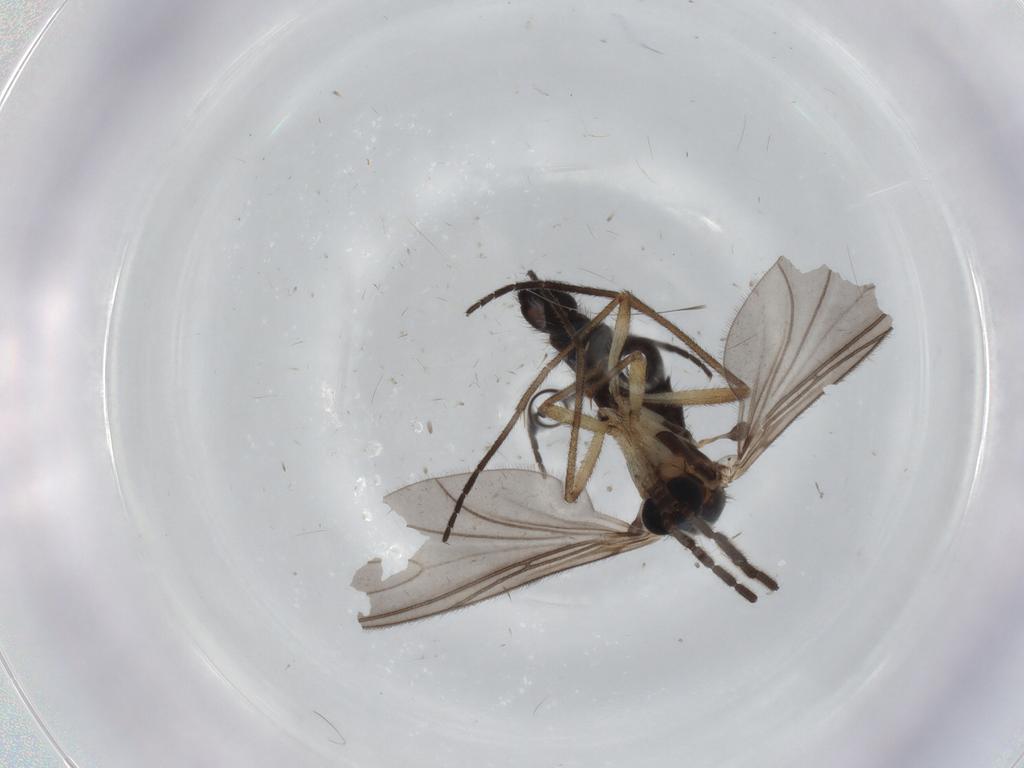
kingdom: Animalia
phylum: Arthropoda
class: Insecta
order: Diptera
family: Sciaridae
